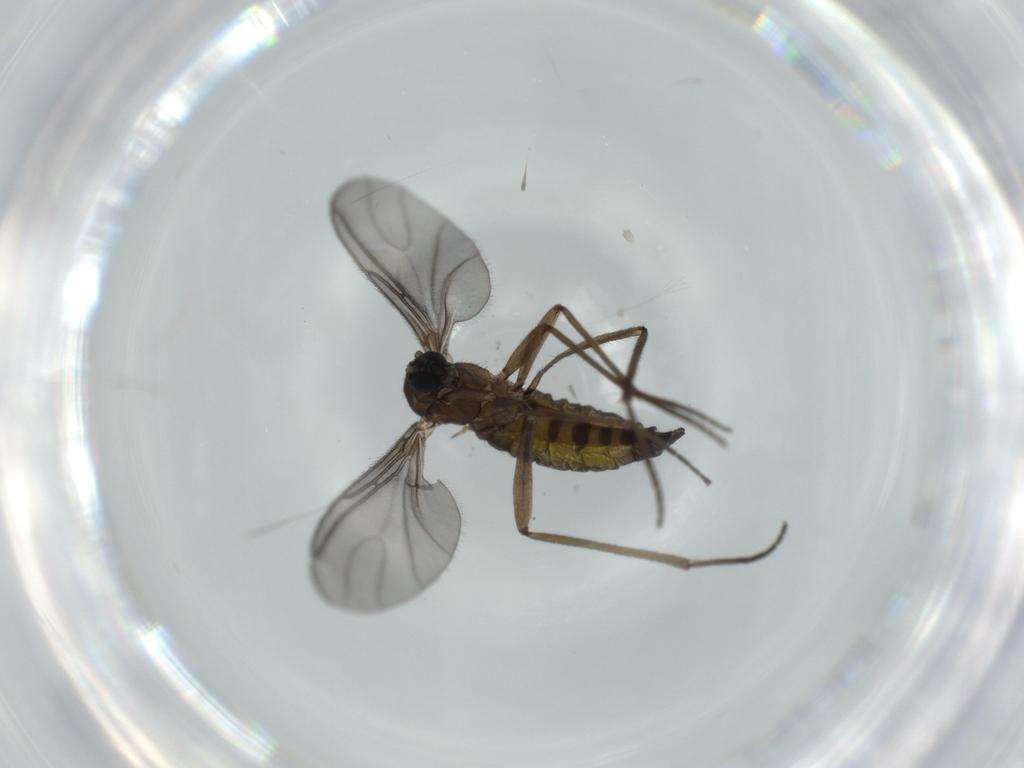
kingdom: Animalia
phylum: Arthropoda
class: Insecta
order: Diptera
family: Sciaridae
